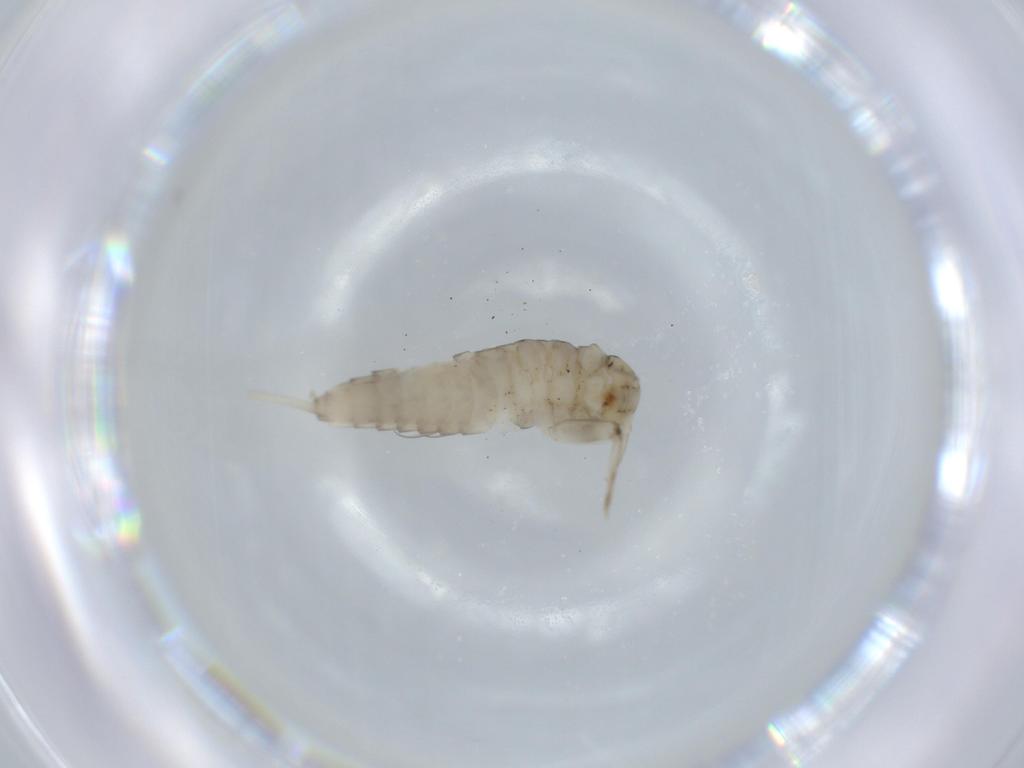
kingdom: Animalia
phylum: Arthropoda
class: Insecta
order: Ephemeroptera
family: Baetidae
